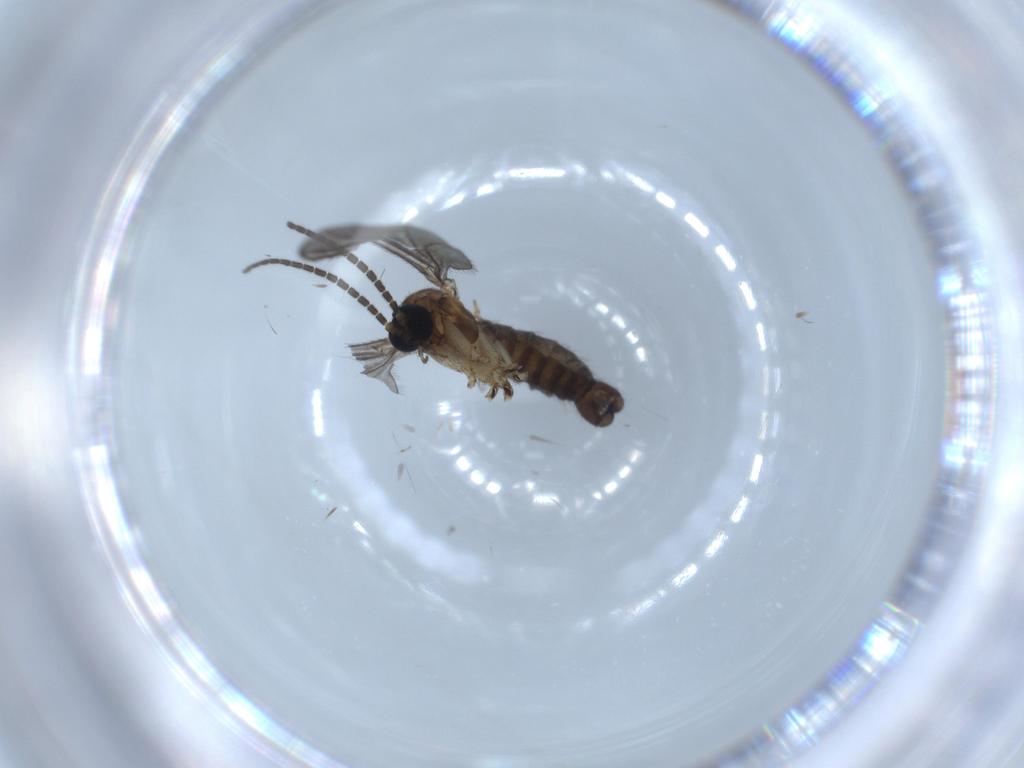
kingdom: Animalia
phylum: Arthropoda
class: Insecta
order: Diptera
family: Sciaridae
